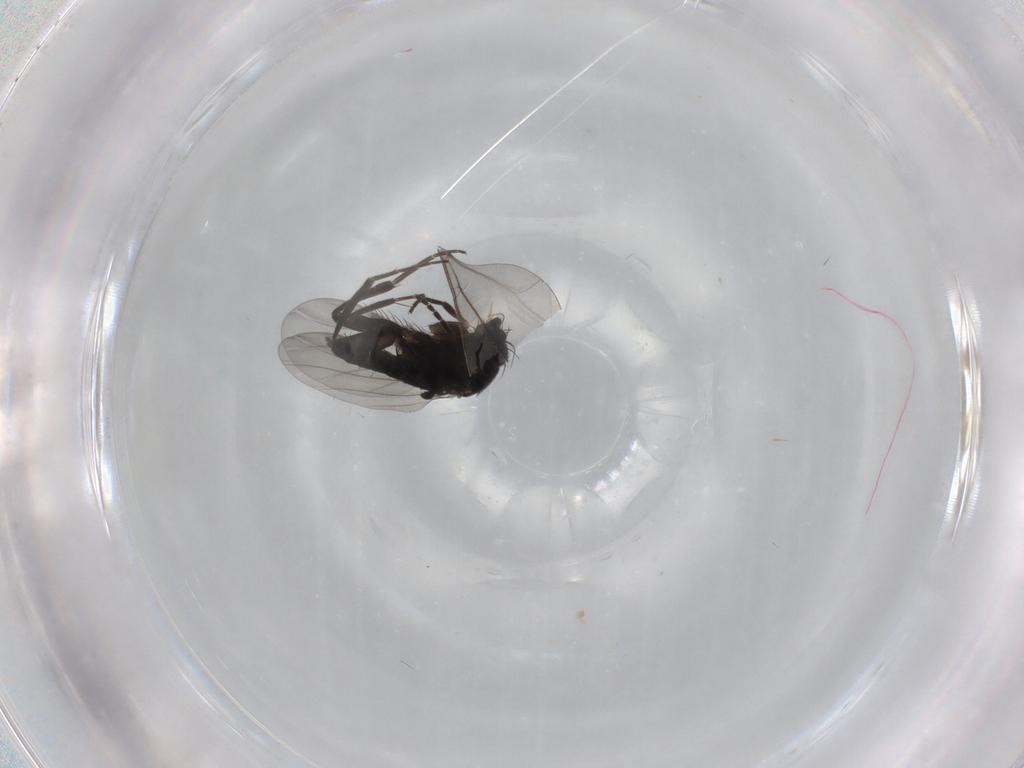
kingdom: Animalia
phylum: Arthropoda
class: Insecta
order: Diptera
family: Phoridae
